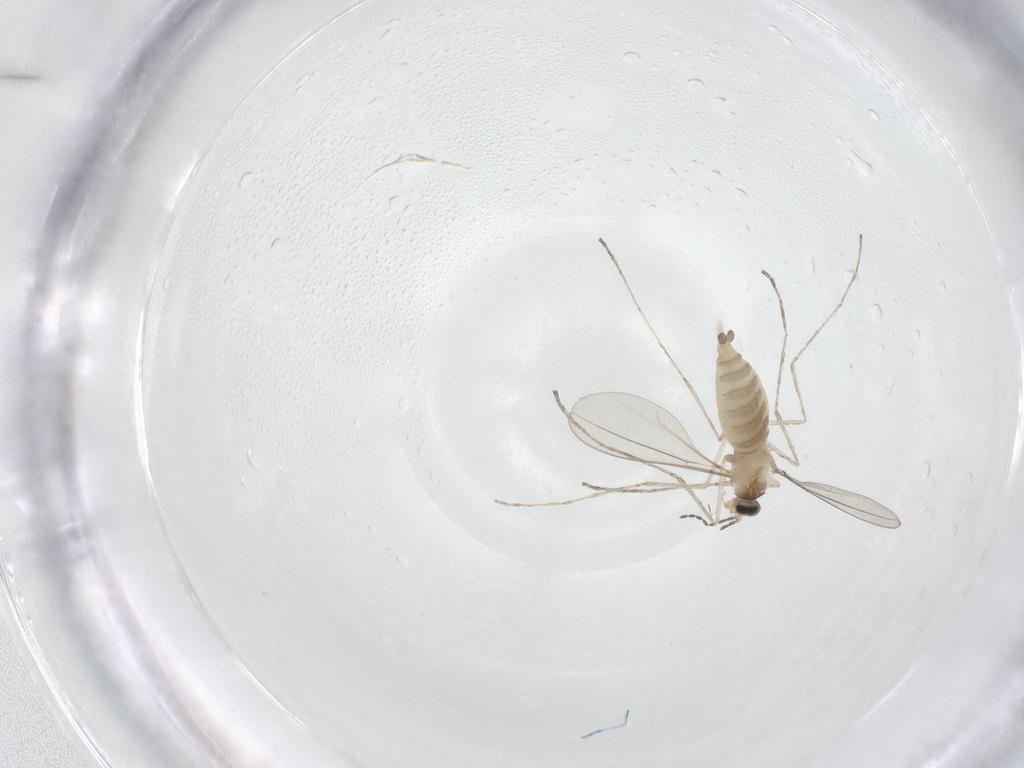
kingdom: Animalia
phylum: Arthropoda
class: Insecta
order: Diptera
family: Cecidomyiidae
